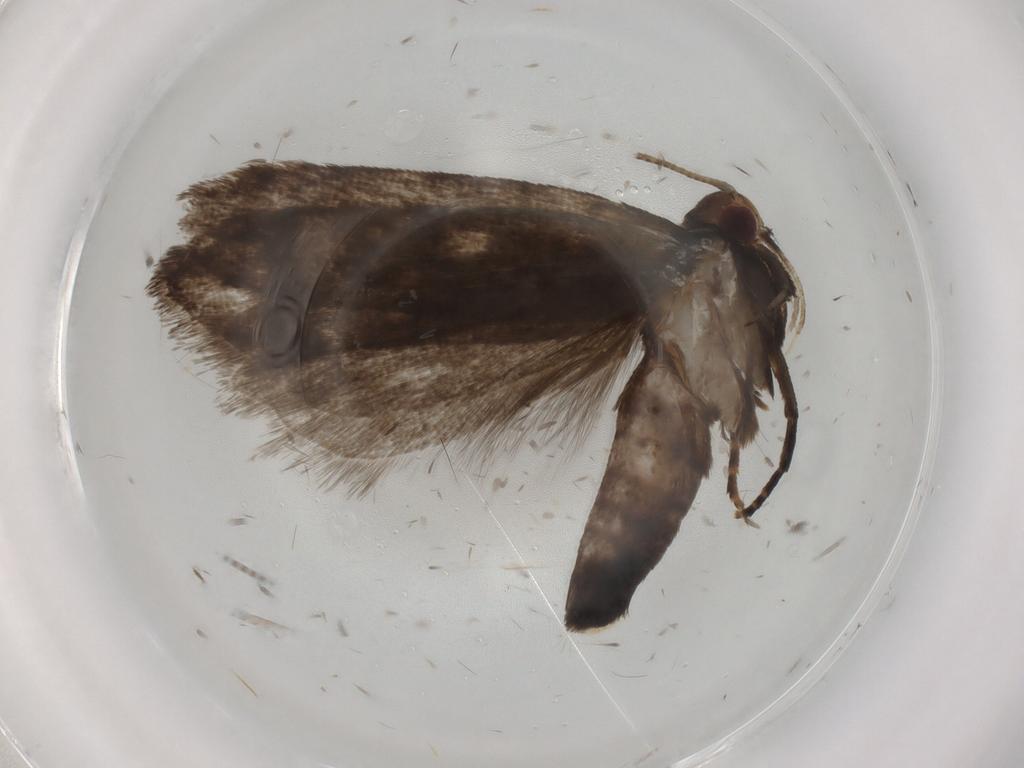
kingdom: Animalia
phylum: Arthropoda
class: Insecta
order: Lepidoptera
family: Gelechiidae
